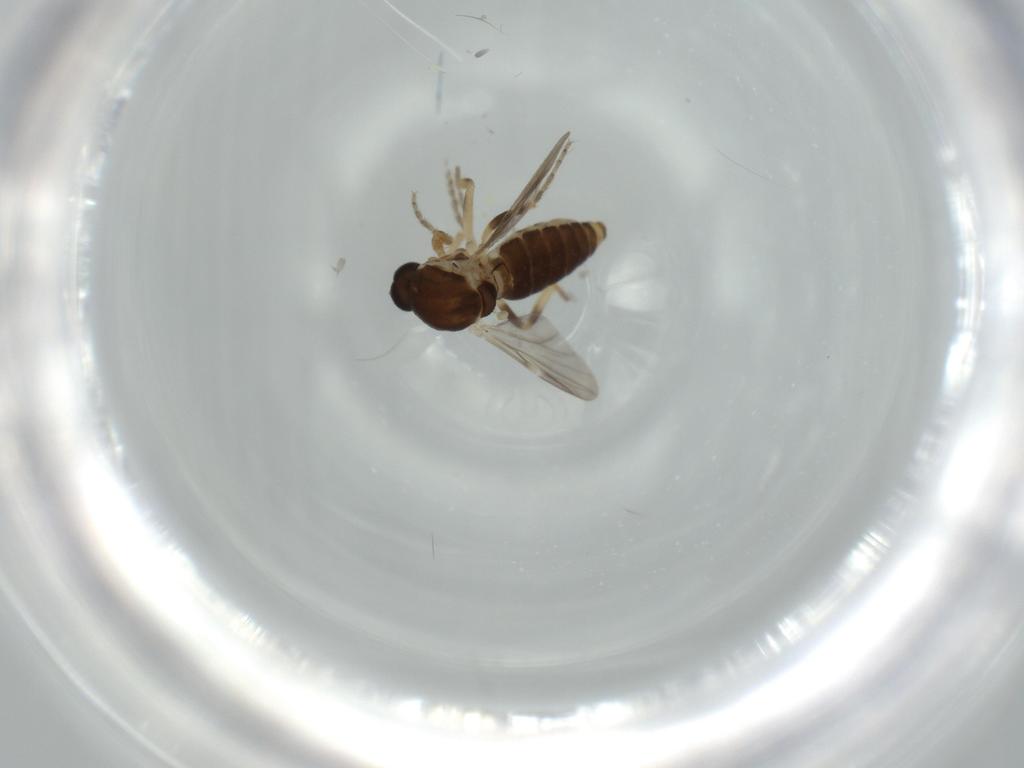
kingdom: Animalia
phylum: Arthropoda
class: Insecta
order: Diptera
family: Ceratopogonidae
